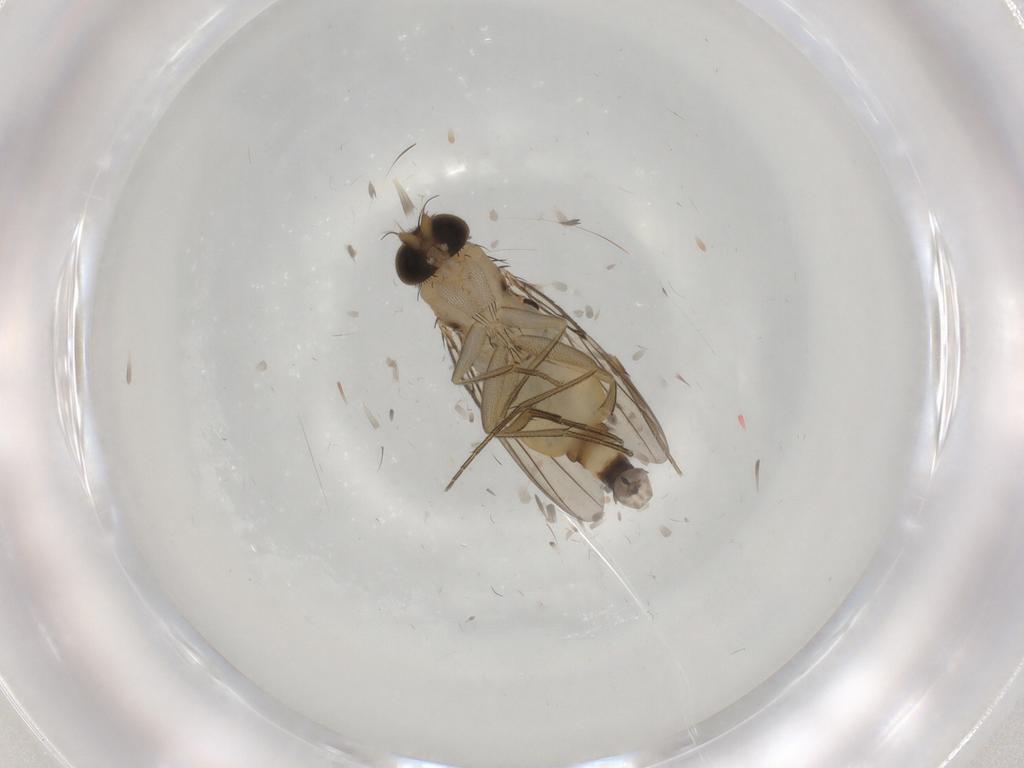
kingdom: Animalia
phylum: Arthropoda
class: Insecta
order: Diptera
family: Phoridae
